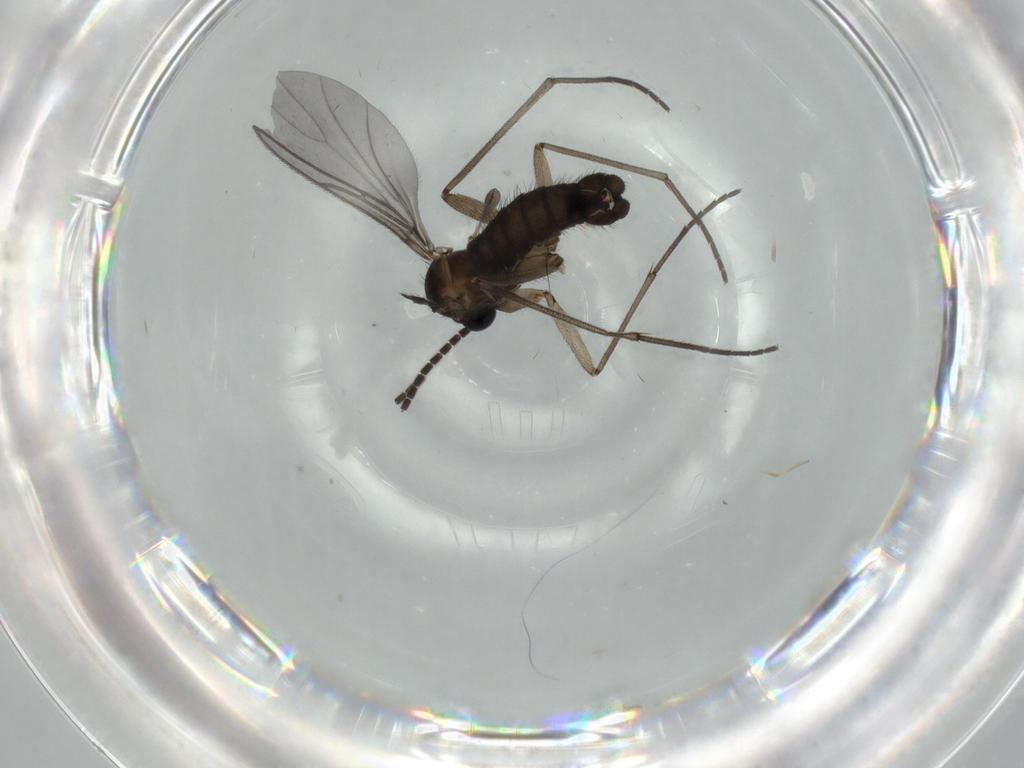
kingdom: Animalia
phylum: Arthropoda
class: Insecta
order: Diptera
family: Sciaridae
